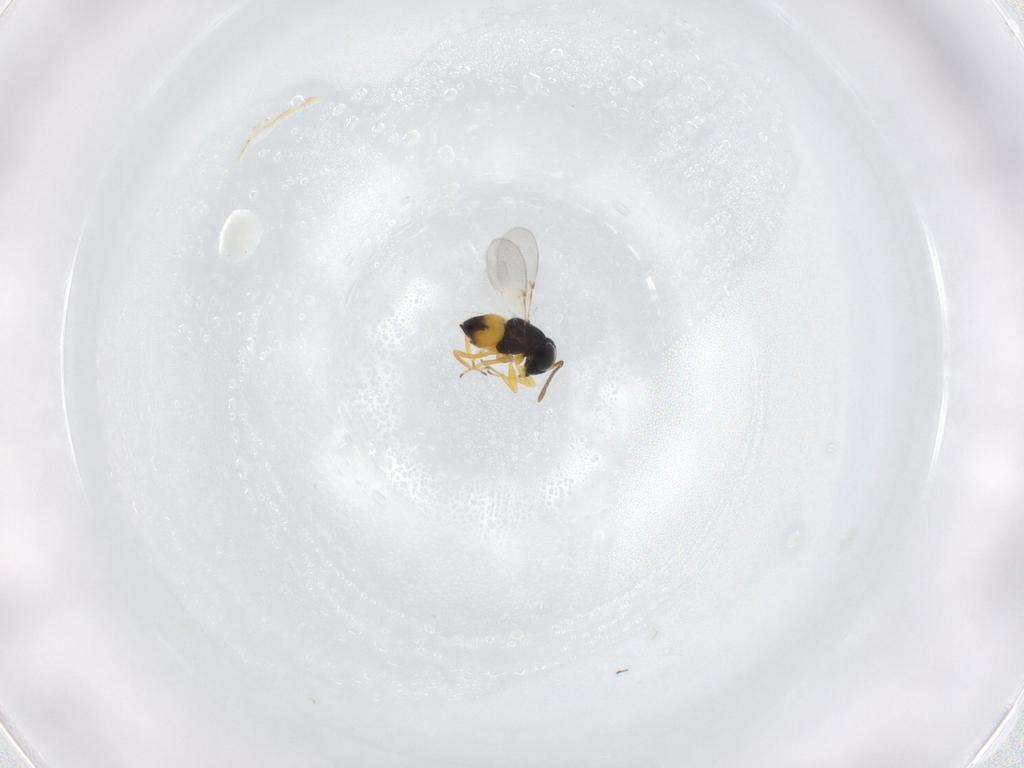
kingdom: Animalia
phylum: Arthropoda
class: Insecta
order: Hymenoptera
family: Encyrtidae
